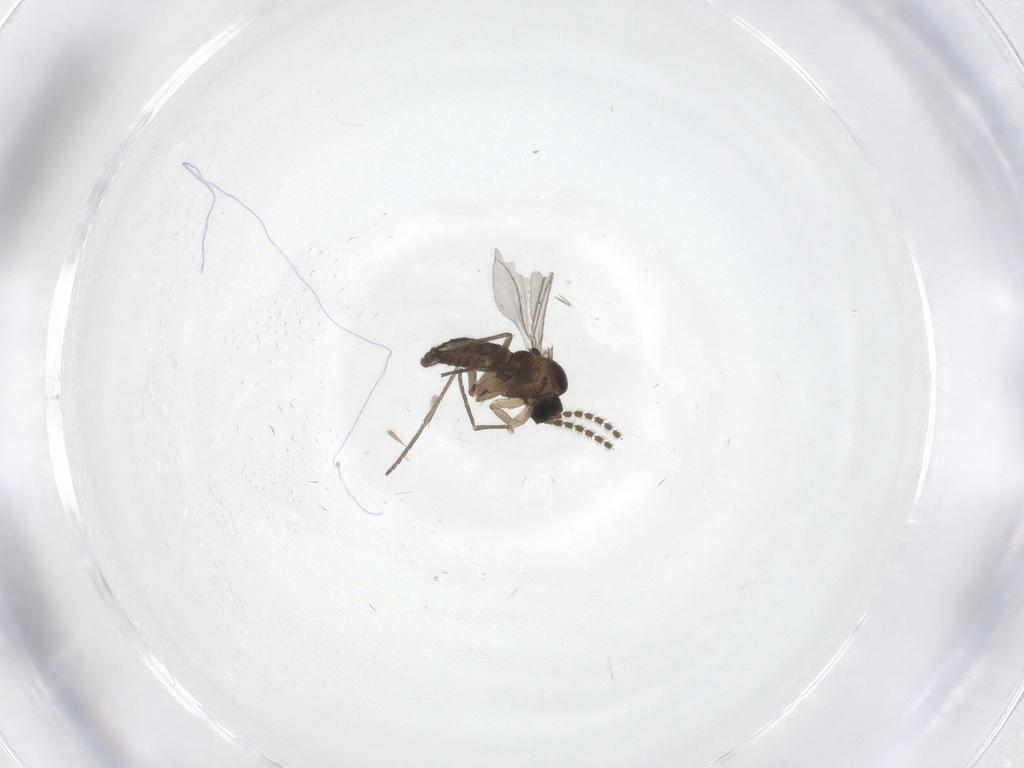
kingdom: Animalia
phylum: Arthropoda
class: Insecta
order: Diptera
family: Sciaridae
